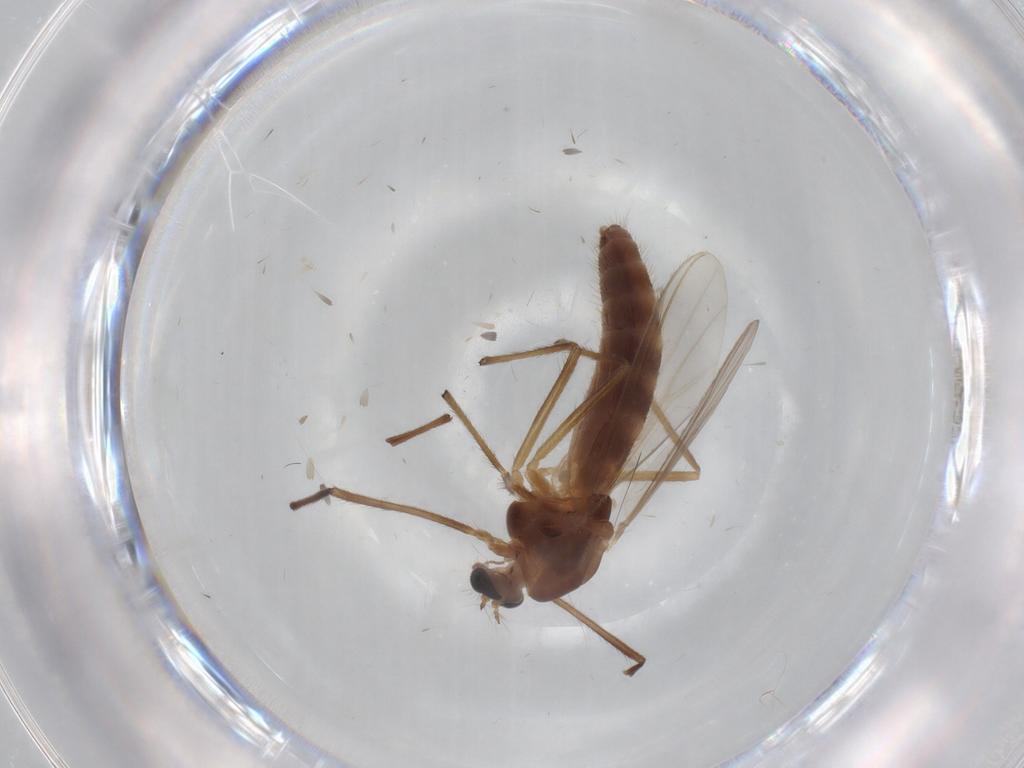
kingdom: Animalia
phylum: Arthropoda
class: Insecta
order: Diptera
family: Chironomidae
